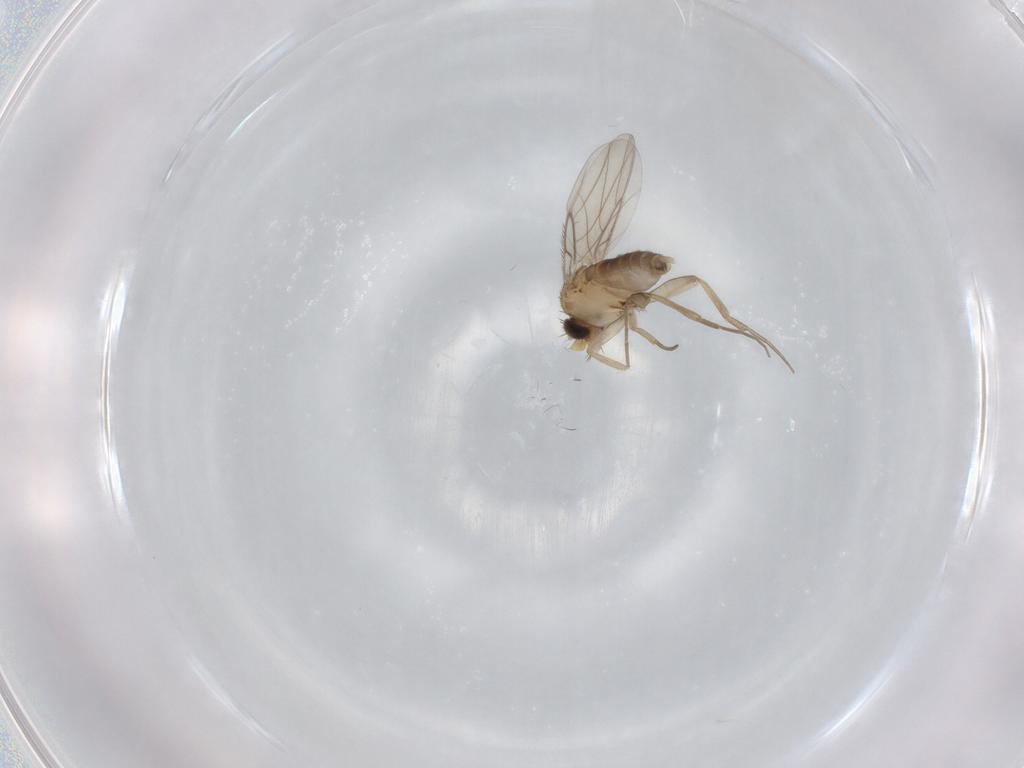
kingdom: Animalia
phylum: Arthropoda
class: Insecta
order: Diptera
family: Phoridae
